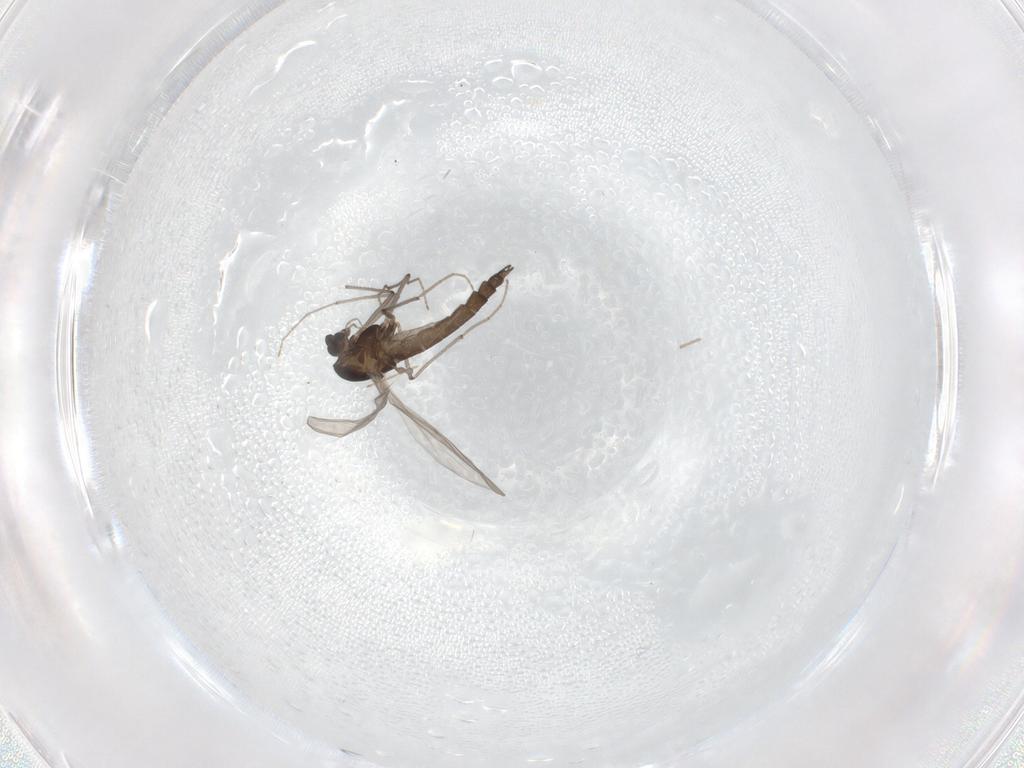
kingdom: Animalia
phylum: Arthropoda
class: Insecta
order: Diptera
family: Chironomidae
